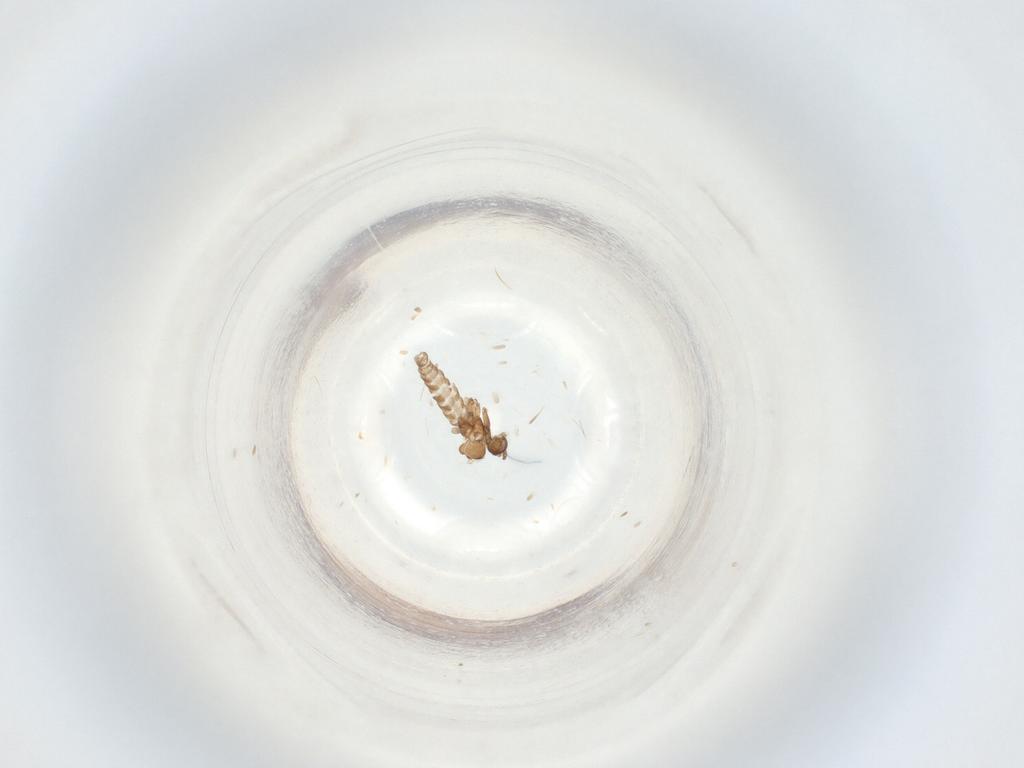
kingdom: Animalia
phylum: Arthropoda
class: Insecta
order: Diptera
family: Sciaridae
